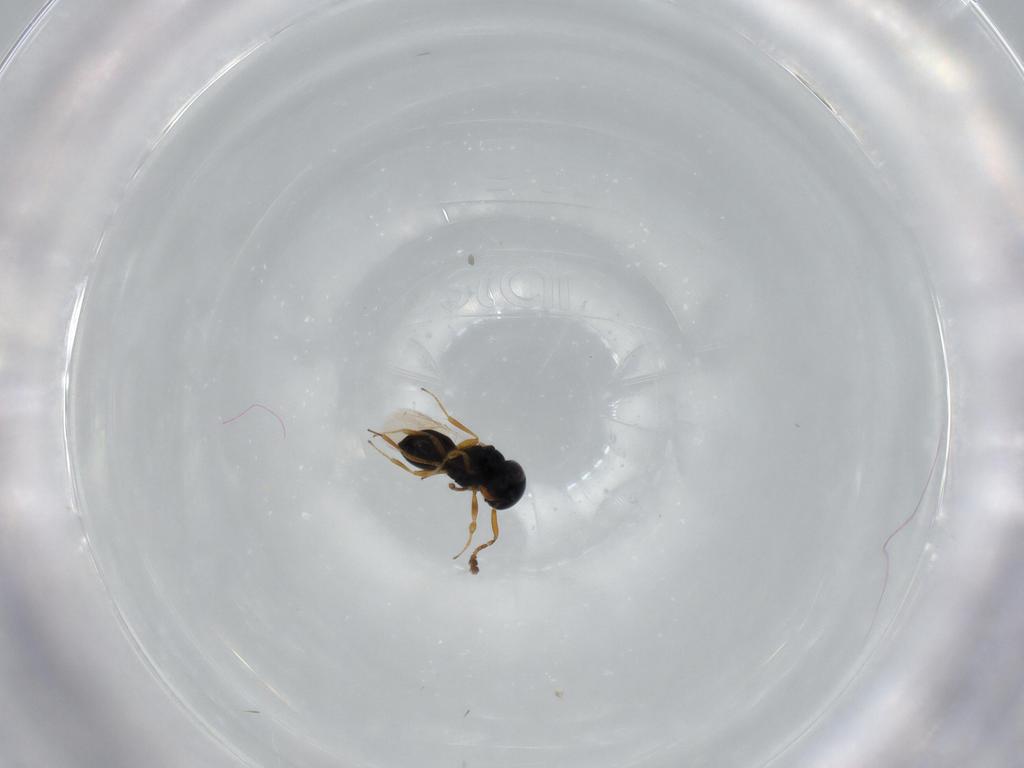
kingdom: Animalia
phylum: Arthropoda
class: Insecta
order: Hymenoptera
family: Scelionidae
